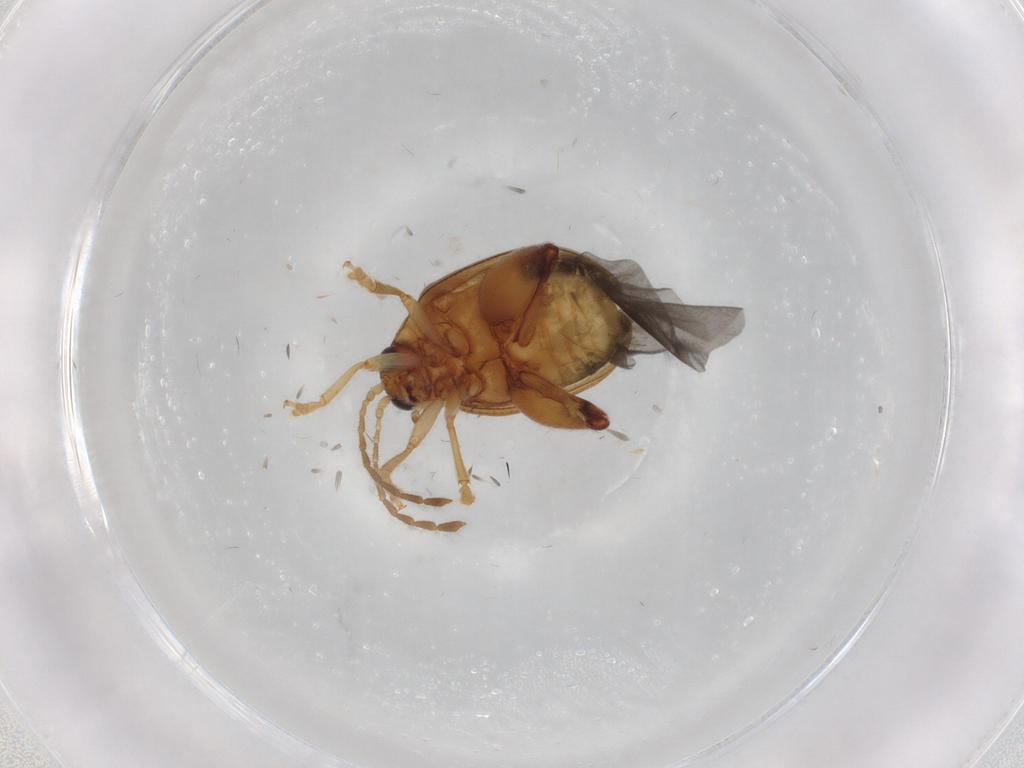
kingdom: Animalia
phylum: Arthropoda
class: Insecta
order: Coleoptera
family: Chrysomelidae
